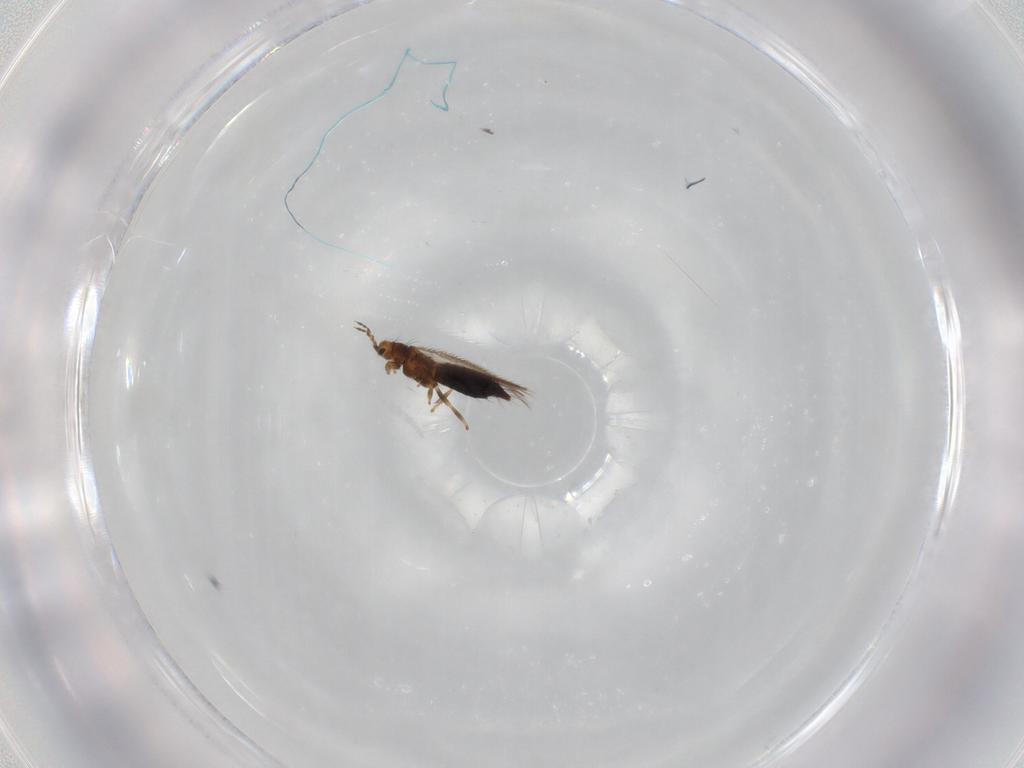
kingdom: Animalia
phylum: Arthropoda
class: Insecta
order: Thysanoptera
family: Thripidae
